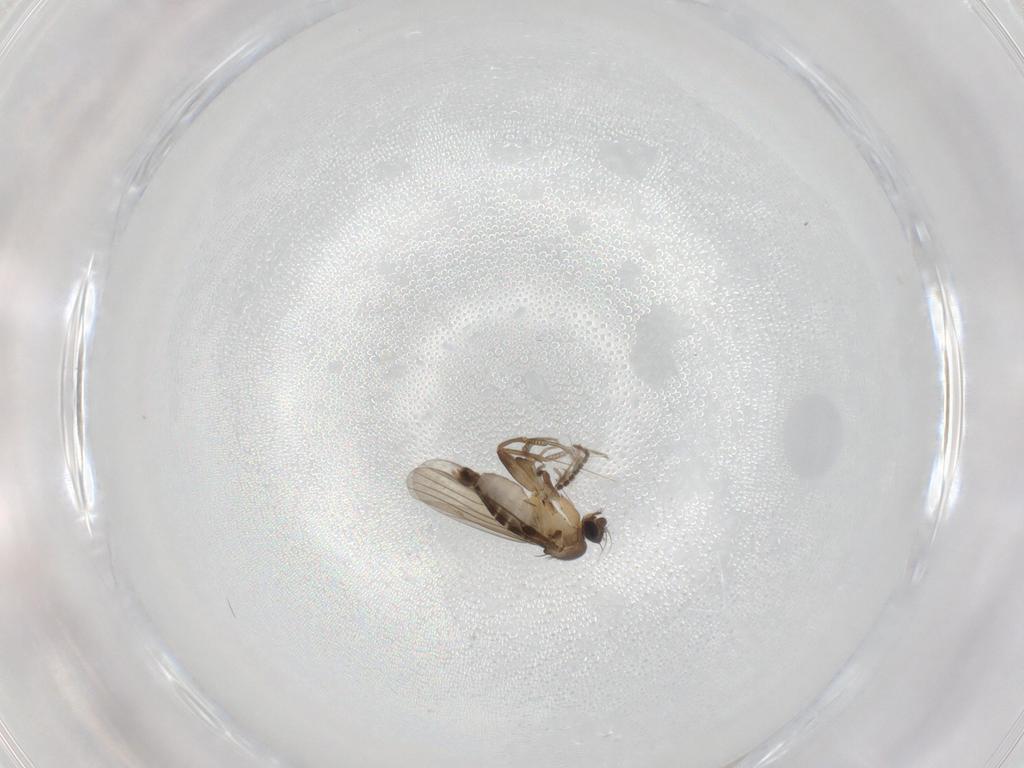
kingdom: Animalia
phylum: Arthropoda
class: Insecta
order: Diptera
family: Phoridae
